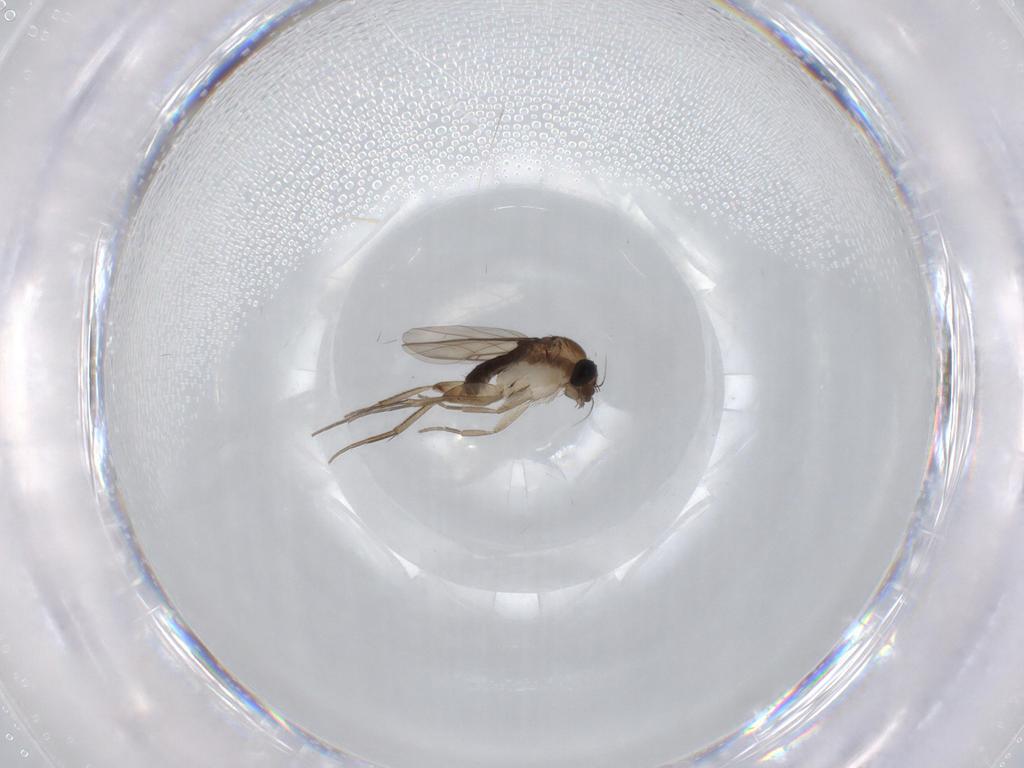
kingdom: Animalia
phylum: Arthropoda
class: Insecta
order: Diptera
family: Phoridae
